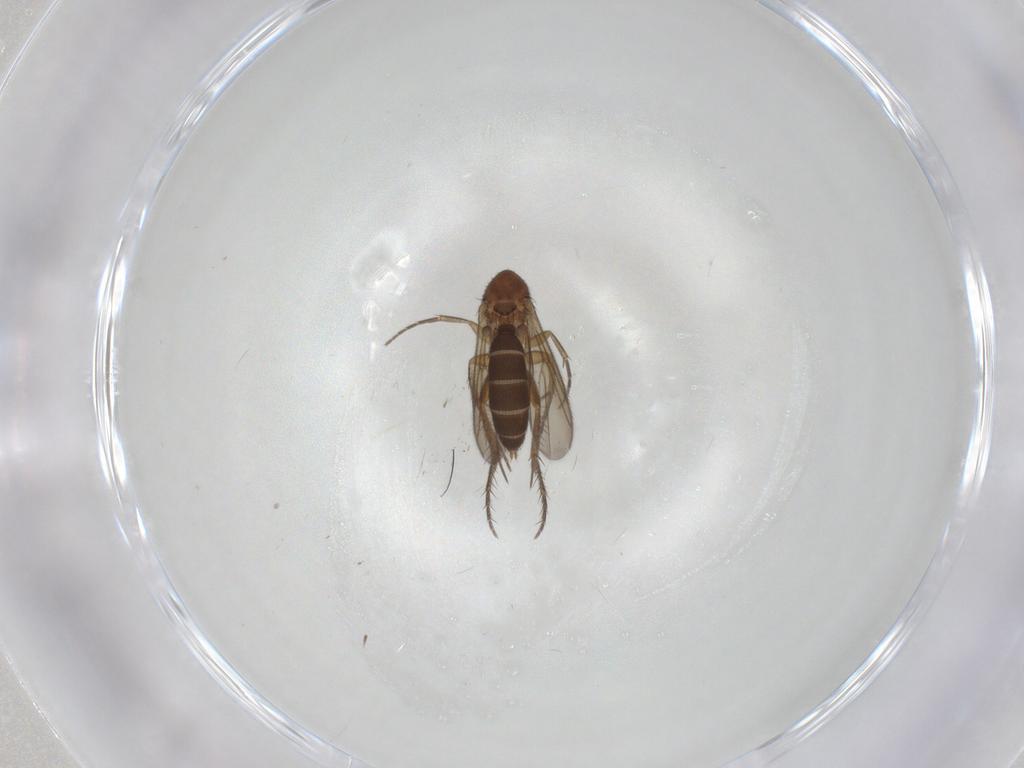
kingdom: Animalia
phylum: Arthropoda
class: Insecta
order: Diptera
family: Psychodidae
